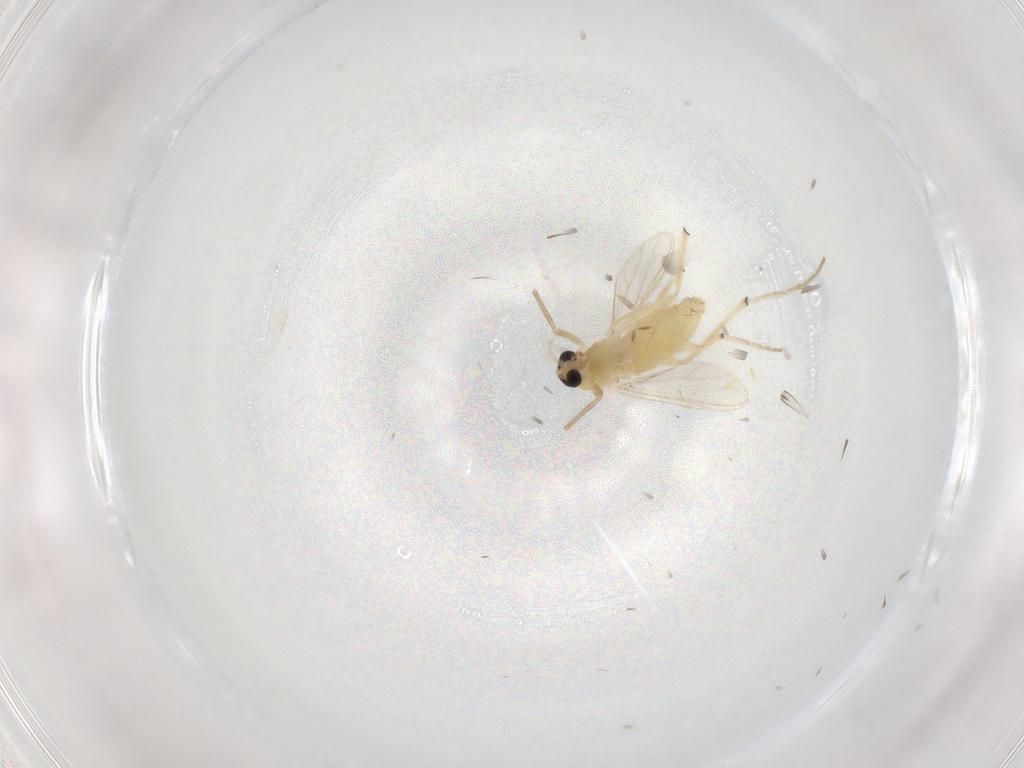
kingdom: Animalia
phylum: Arthropoda
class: Insecta
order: Diptera
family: Chironomidae
